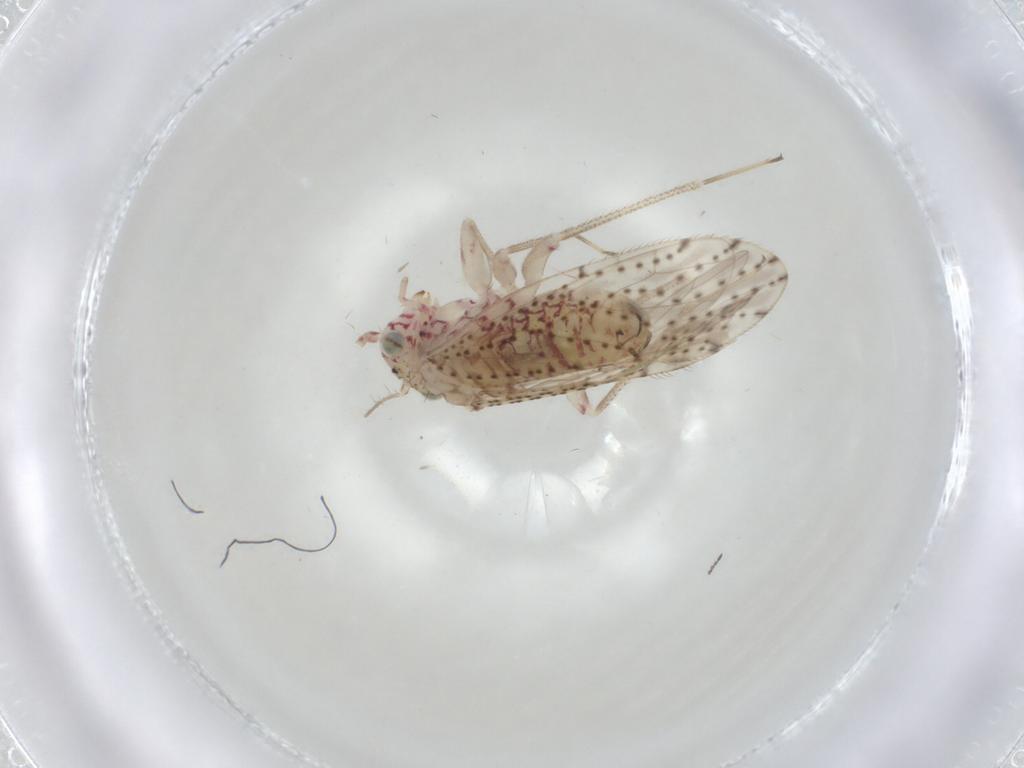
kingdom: Animalia
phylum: Arthropoda
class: Insecta
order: Psocodea
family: Philotarsidae
